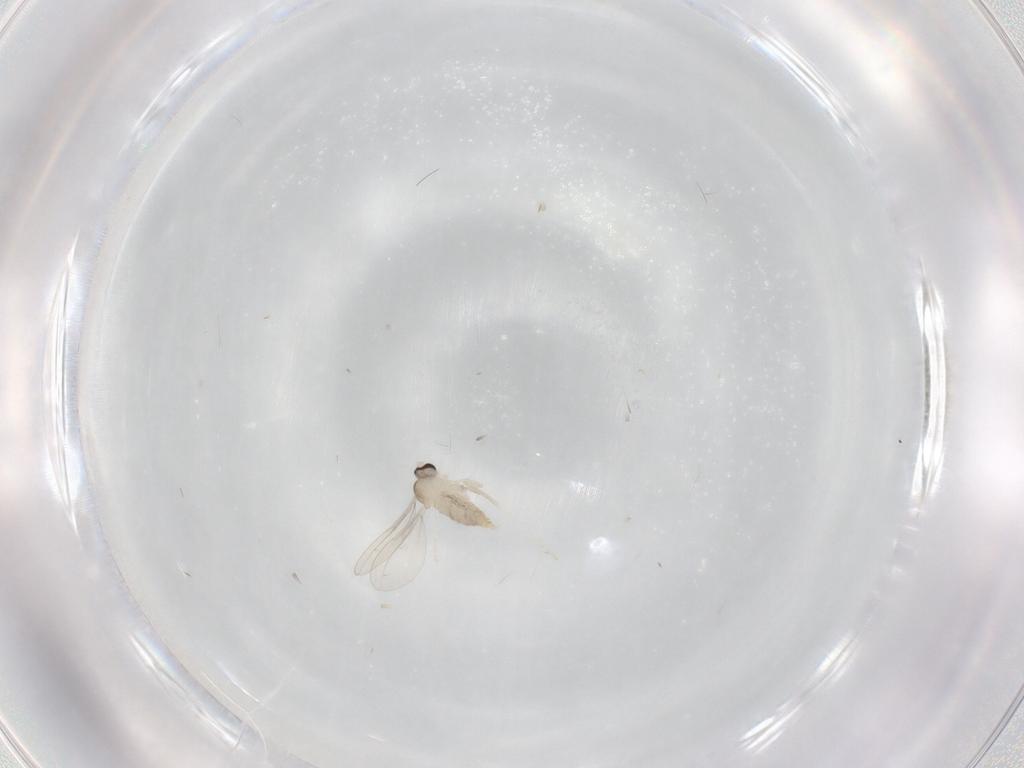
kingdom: Animalia
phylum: Arthropoda
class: Insecta
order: Diptera
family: Cecidomyiidae
